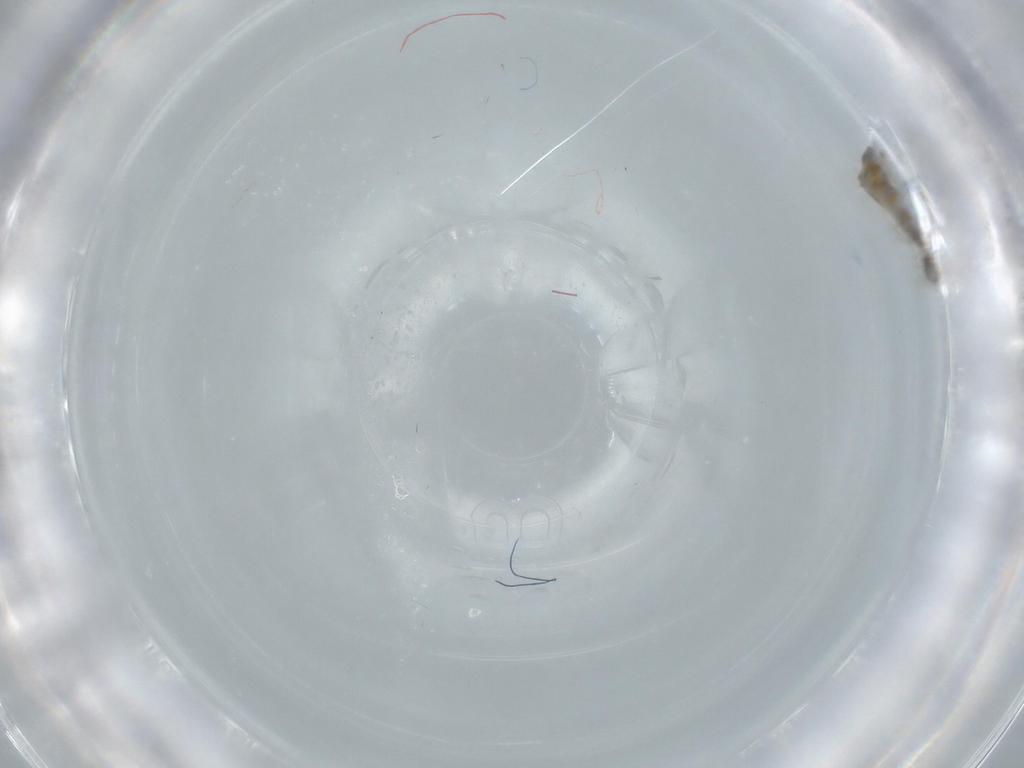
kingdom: Animalia
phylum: Arthropoda
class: Insecta
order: Diptera
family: Psychodidae
